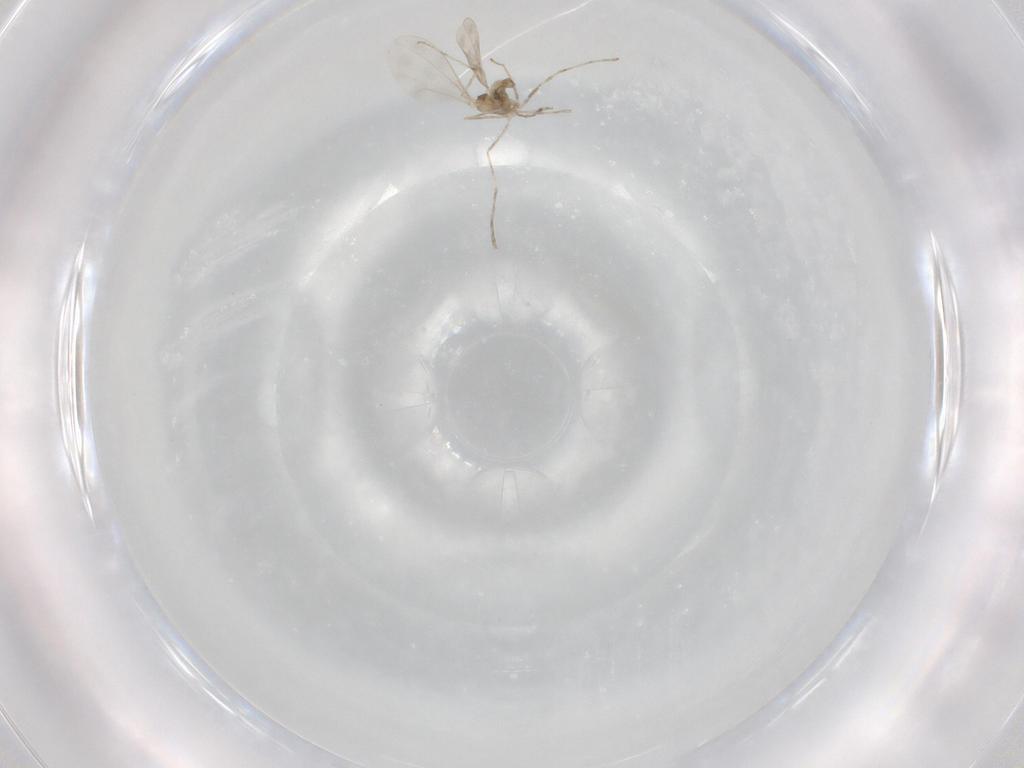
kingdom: Animalia
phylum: Arthropoda
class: Insecta
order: Diptera
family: Cecidomyiidae
